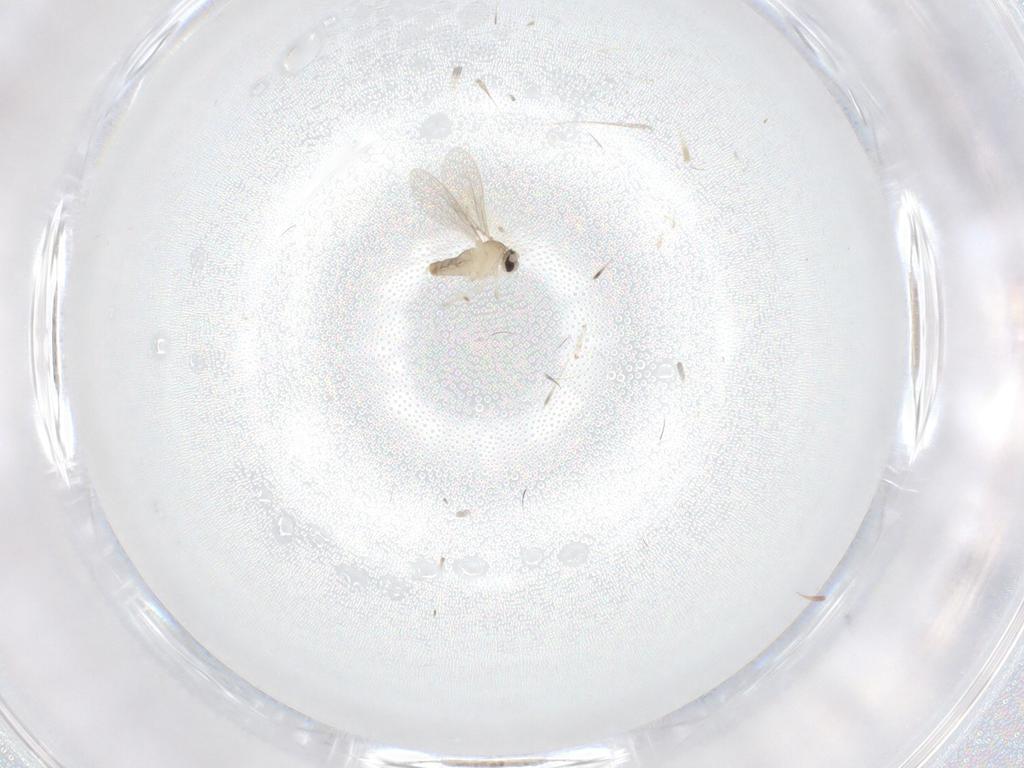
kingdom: Animalia
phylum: Arthropoda
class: Insecta
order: Diptera
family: Cecidomyiidae
